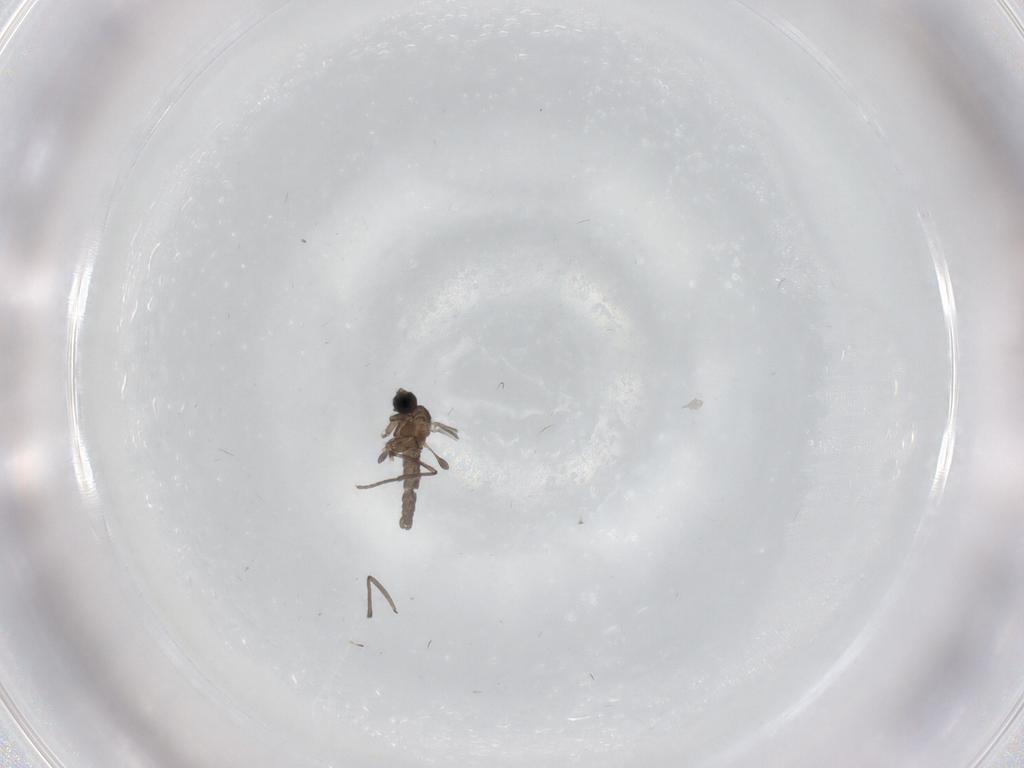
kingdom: Animalia
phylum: Arthropoda
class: Insecta
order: Diptera
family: Sciaridae
